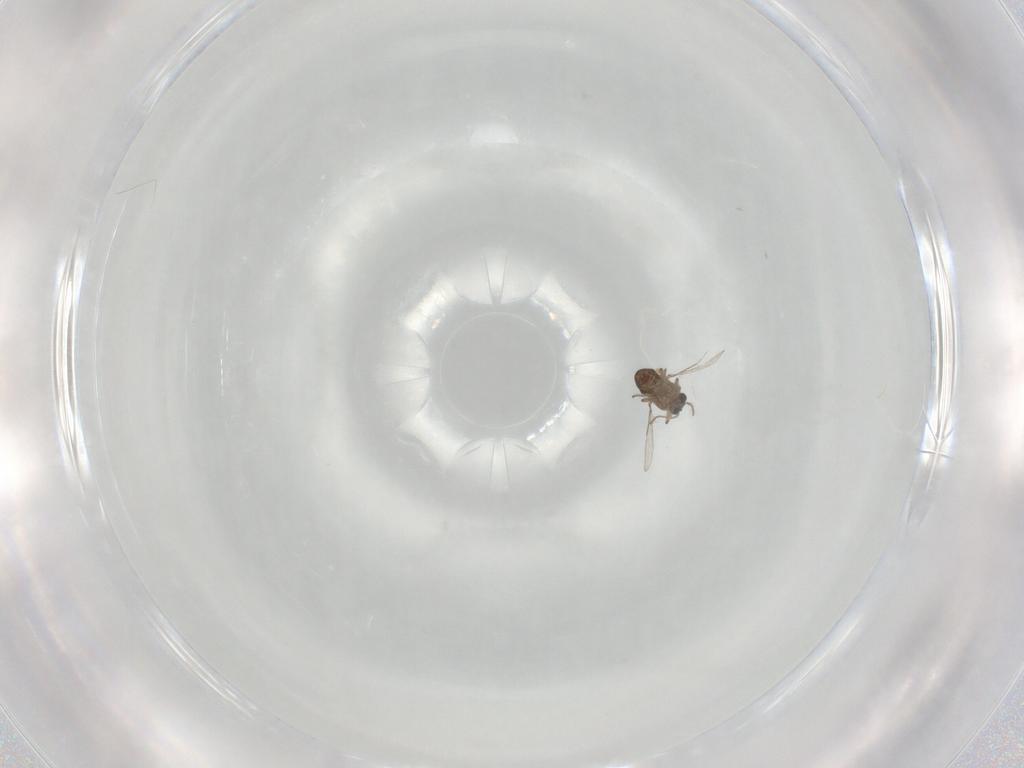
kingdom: Animalia
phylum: Arthropoda
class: Insecta
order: Diptera
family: Ceratopogonidae
